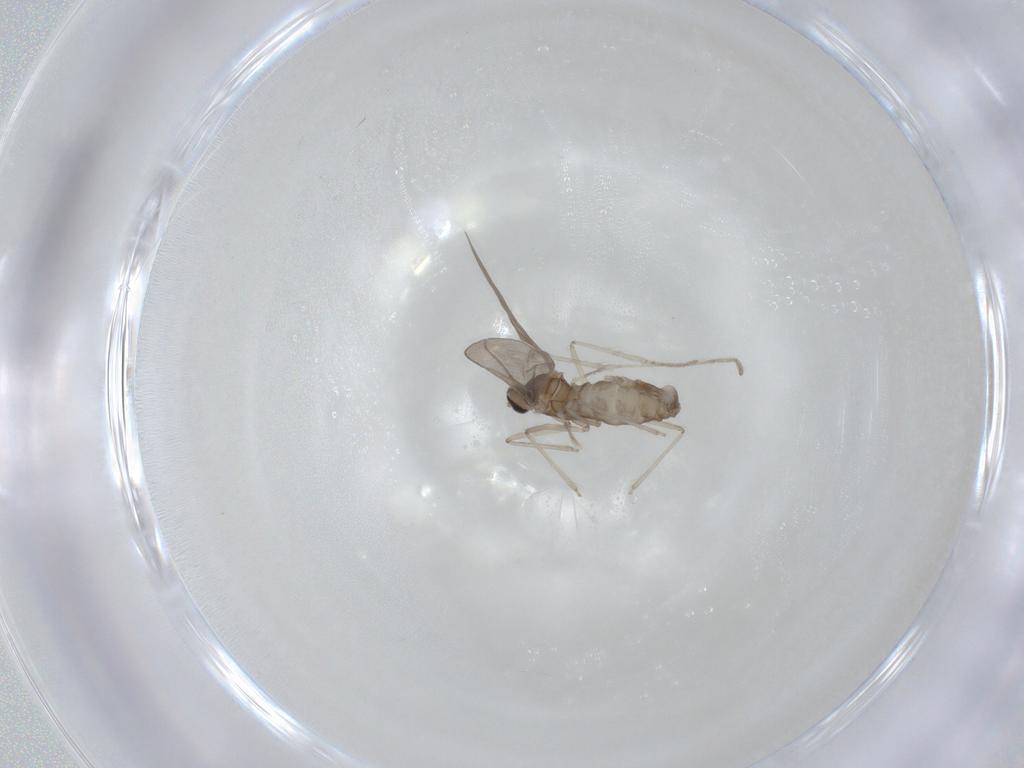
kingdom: Animalia
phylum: Arthropoda
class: Insecta
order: Diptera
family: Cecidomyiidae
